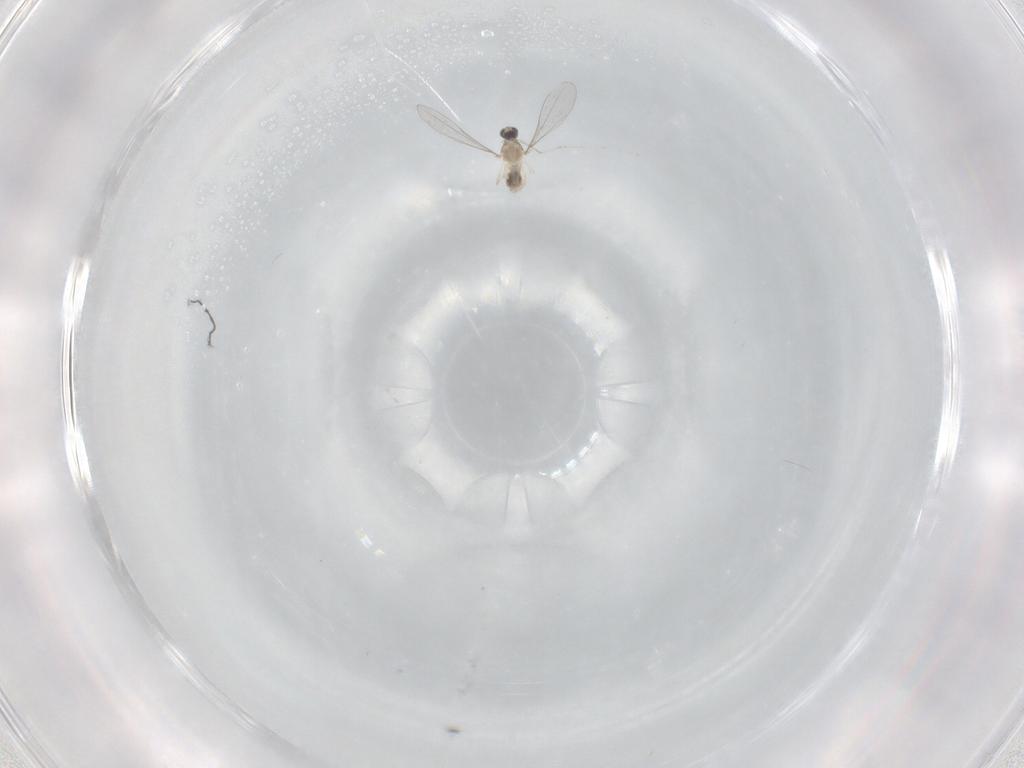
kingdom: Animalia
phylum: Arthropoda
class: Insecta
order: Diptera
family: Cecidomyiidae
